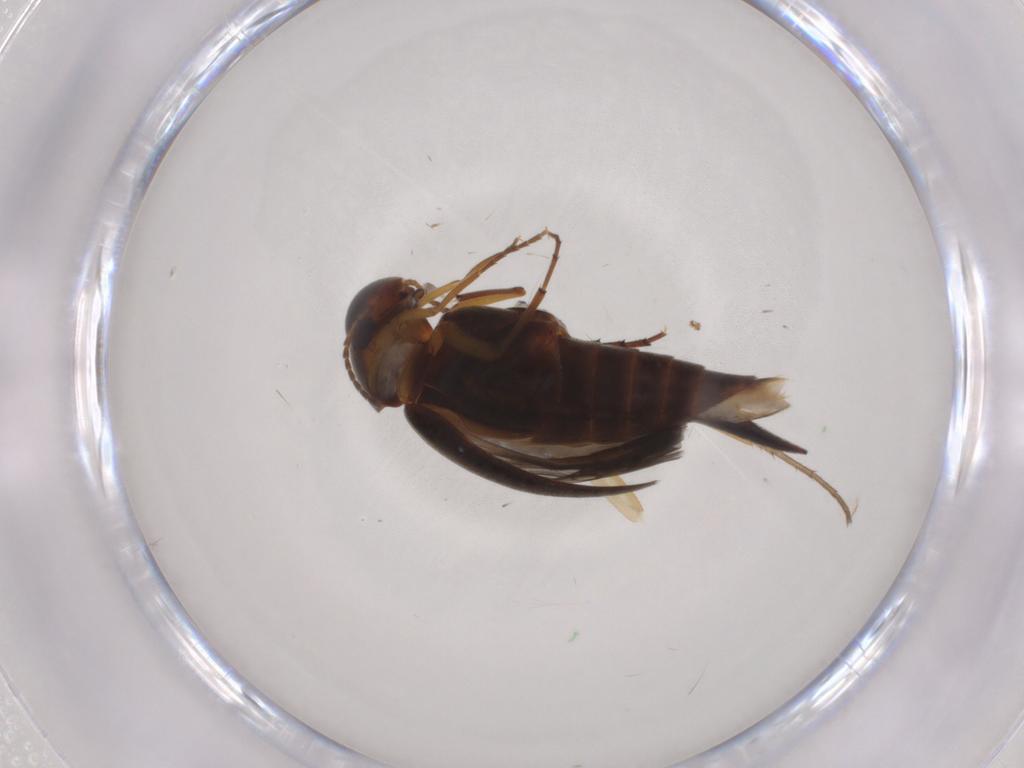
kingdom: Animalia
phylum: Arthropoda
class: Insecta
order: Coleoptera
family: Mordellidae
